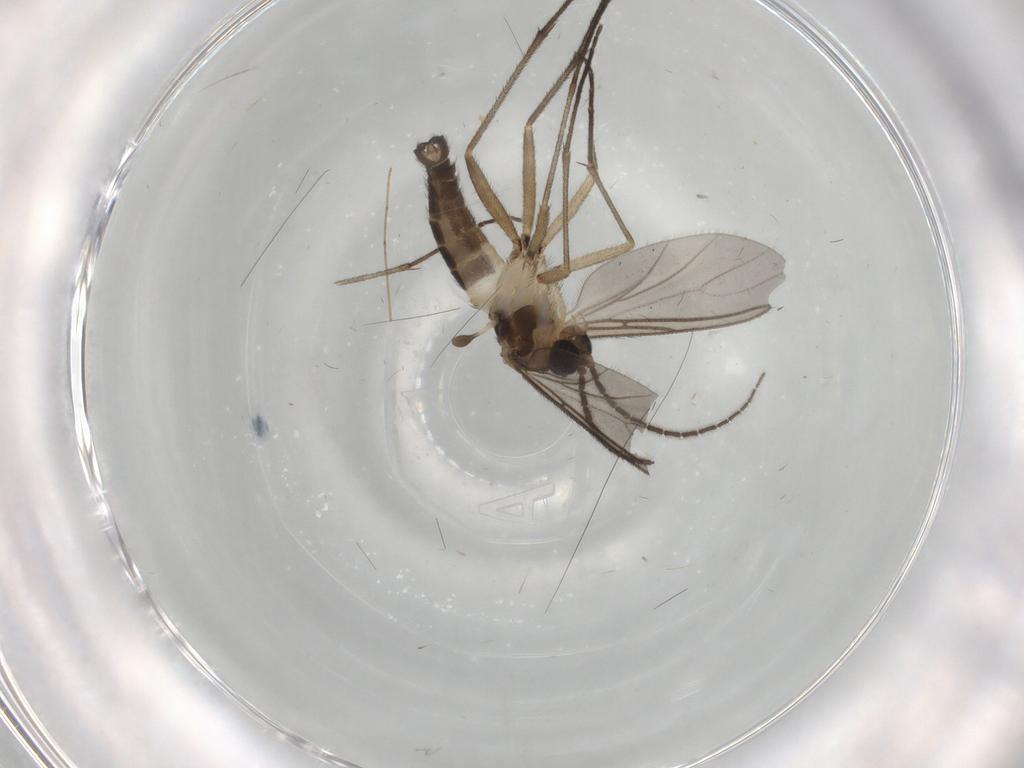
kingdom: Animalia
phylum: Arthropoda
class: Insecta
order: Diptera
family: Sciaridae
